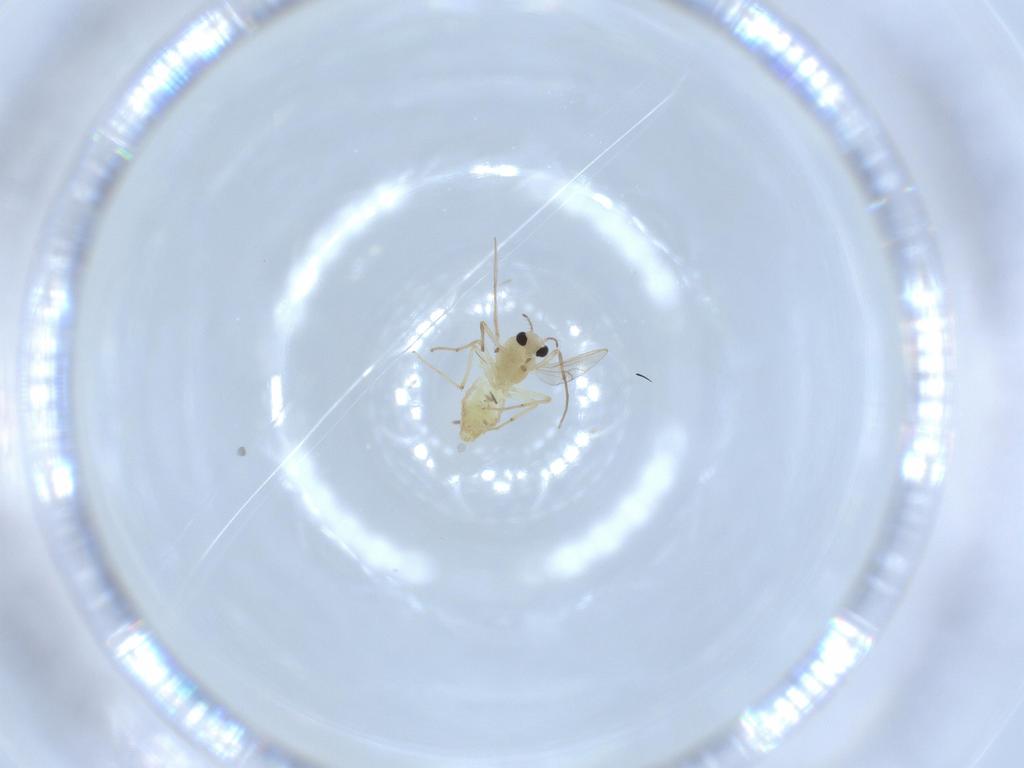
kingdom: Animalia
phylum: Arthropoda
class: Insecta
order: Diptera
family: Chironomidae
